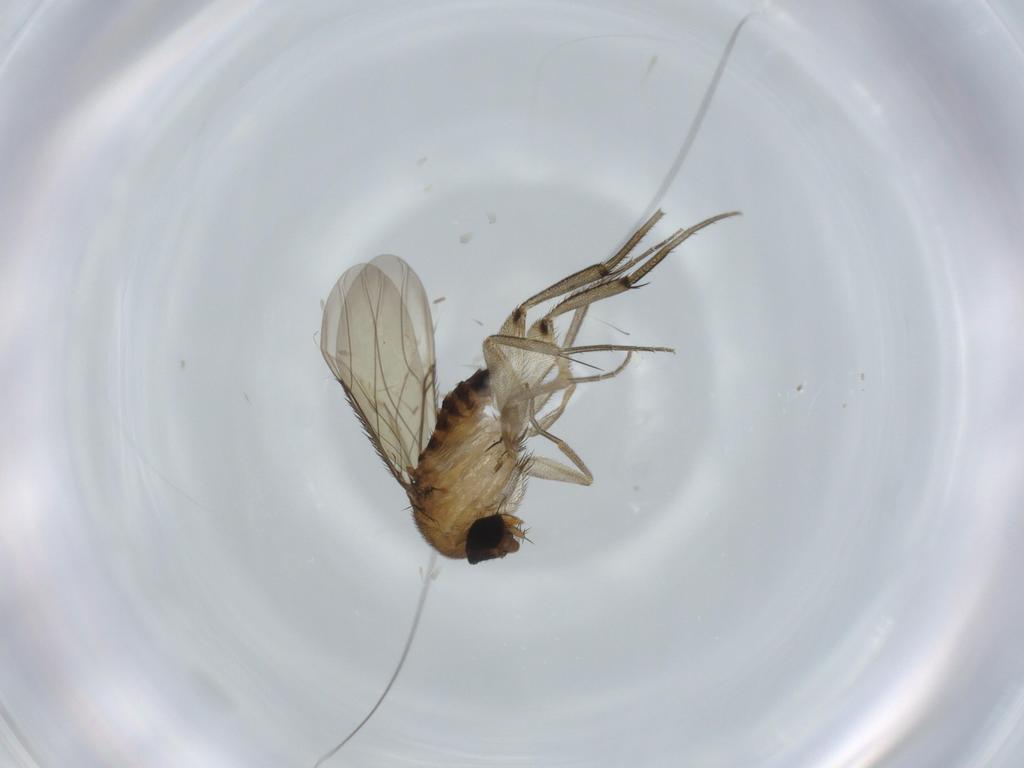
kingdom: Animalia
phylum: Arthropoda
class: Insecta
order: Diptera
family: Phoridae
